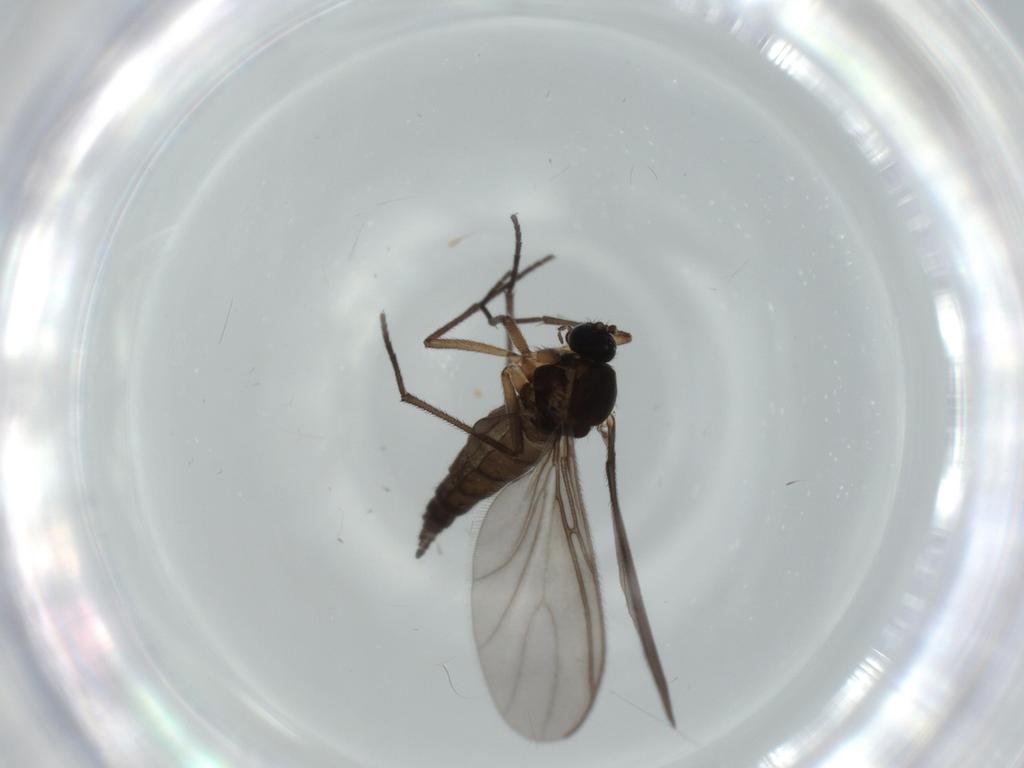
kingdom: Animalia
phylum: Arthropoda
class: Insecta
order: Diptera
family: Sciaridae
